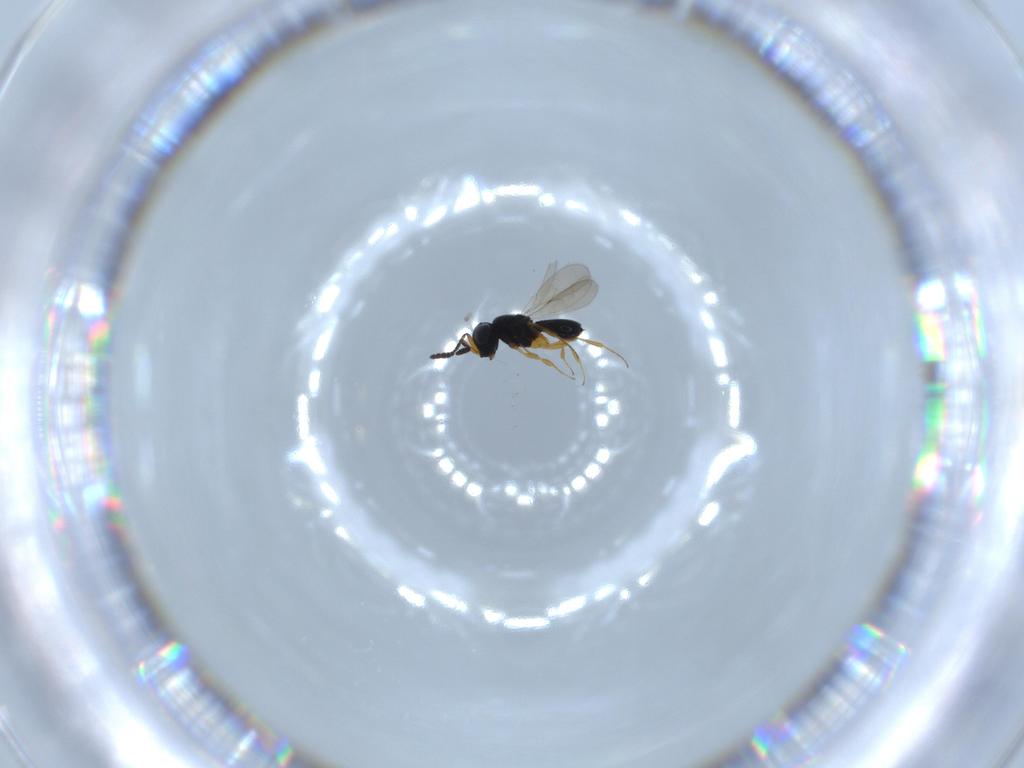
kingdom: Animalia
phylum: Arthropoda
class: Insecta
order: Hymenoptera
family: Scelionidae
